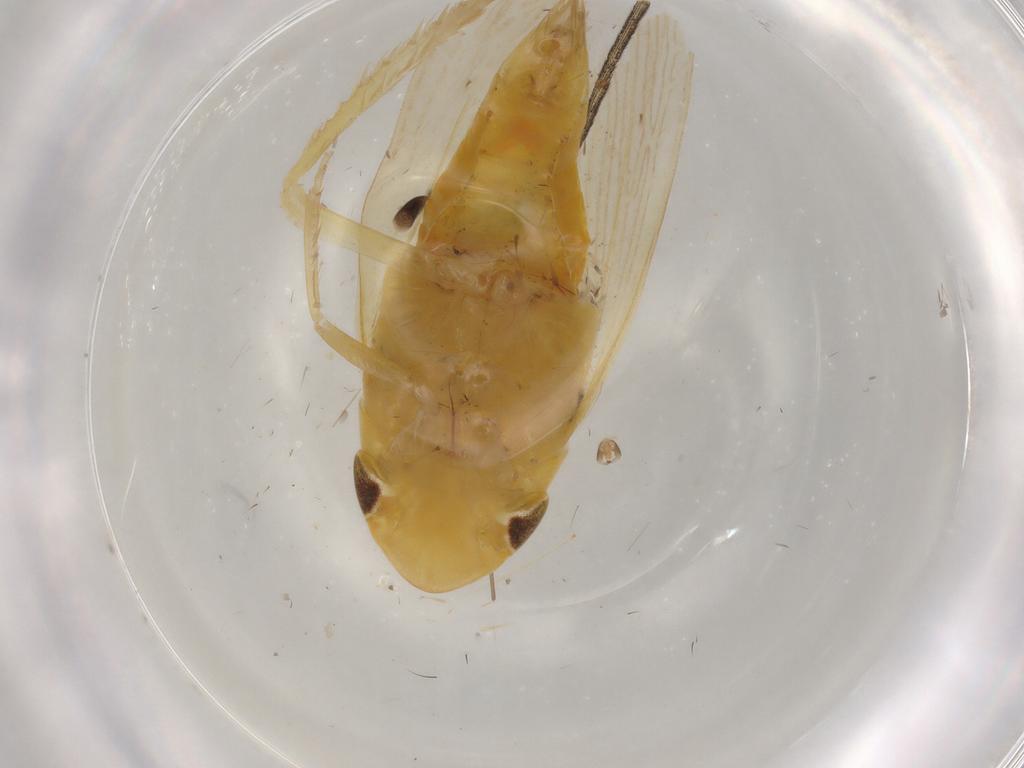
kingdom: Animalia
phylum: Arthropoda
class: Insecta
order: Hemiptera
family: Cicadellidae
